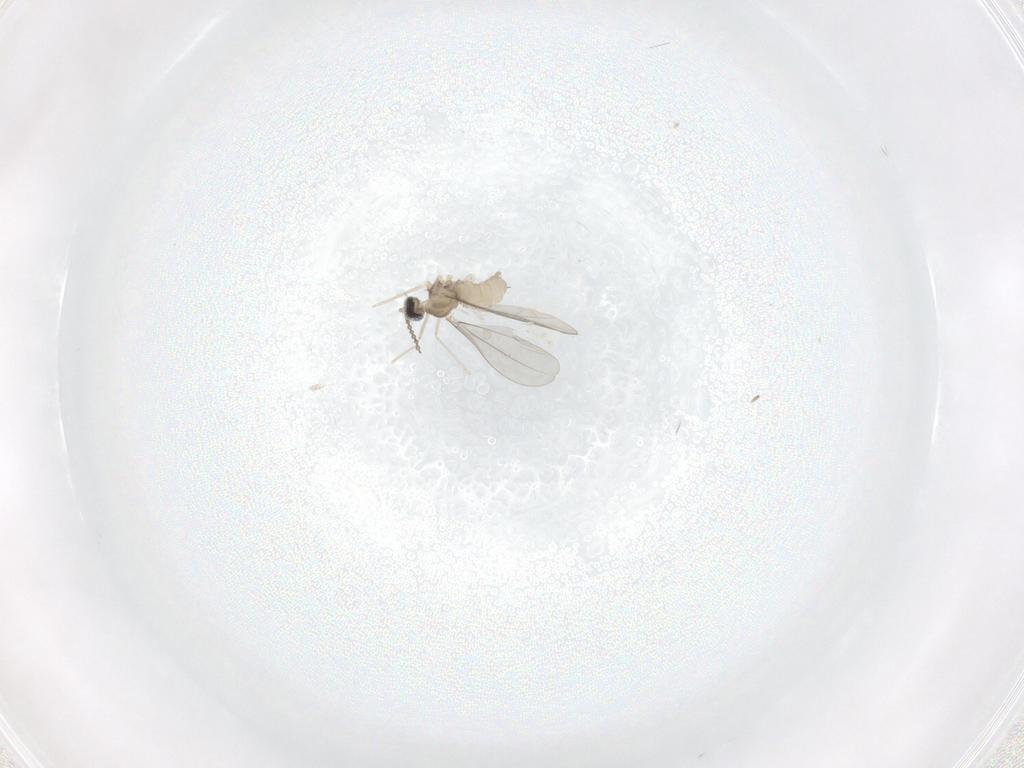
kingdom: Animalia
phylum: Arthropoda
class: Insecta
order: Diptera
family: Cecidomyiidae
